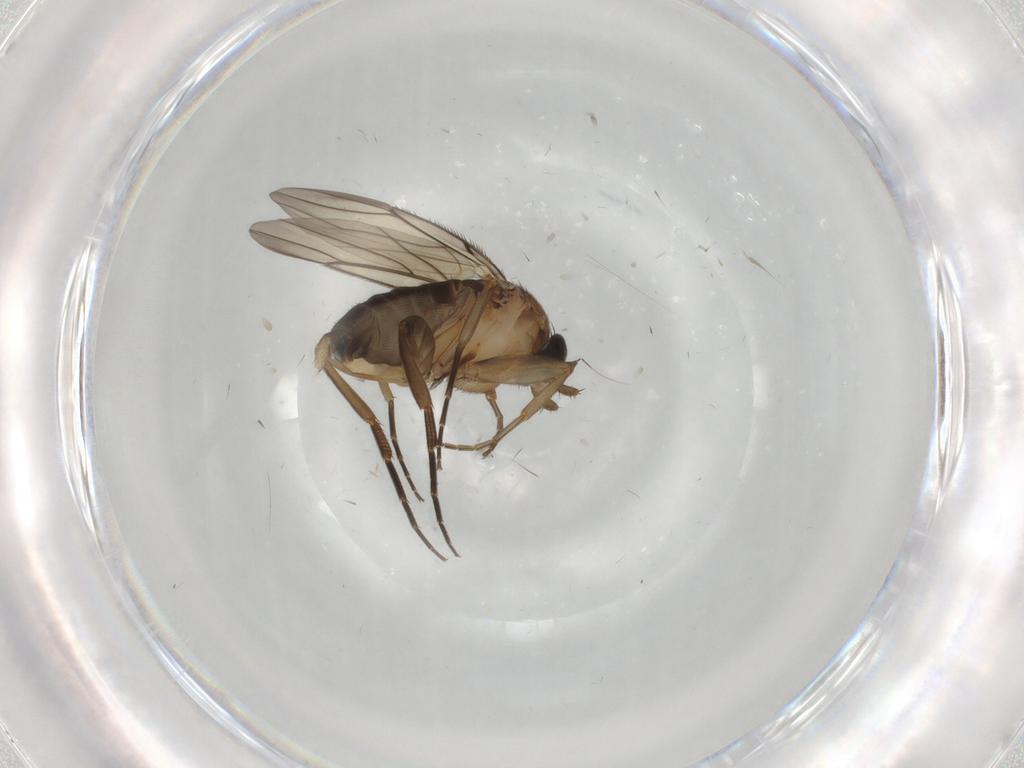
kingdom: Animalia
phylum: Arthropoda
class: Insecta
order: Diptera
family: Phoridae
